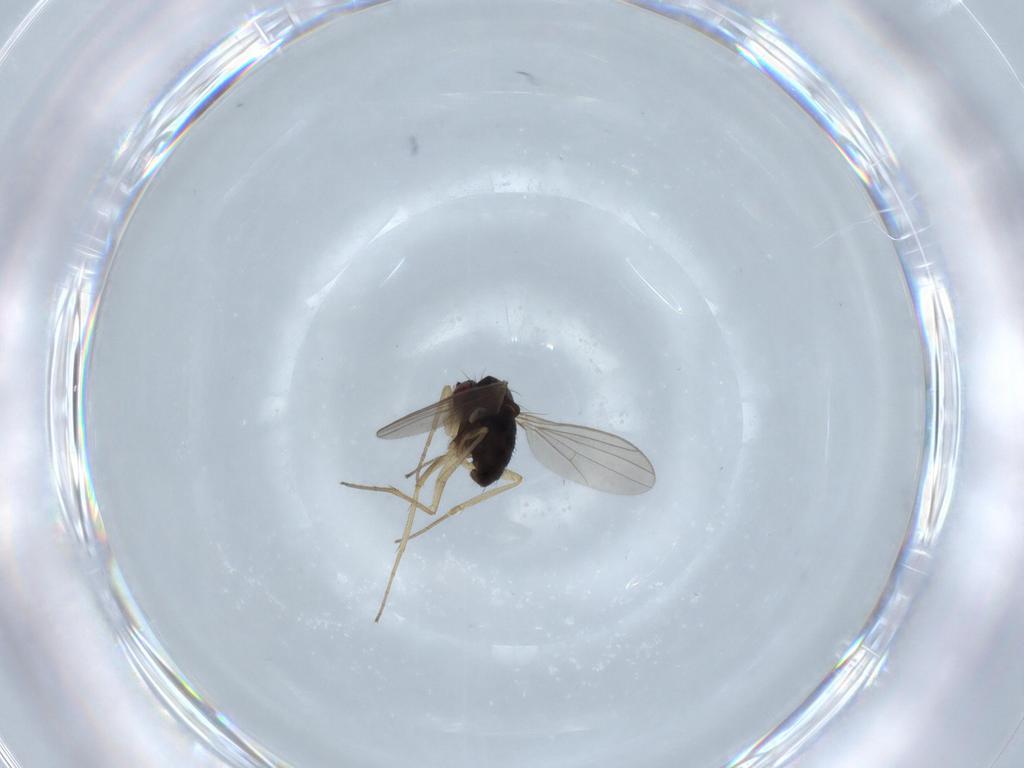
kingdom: Animalia
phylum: Arthropoda
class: Insecta
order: Diptera
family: Dolichopodidae
